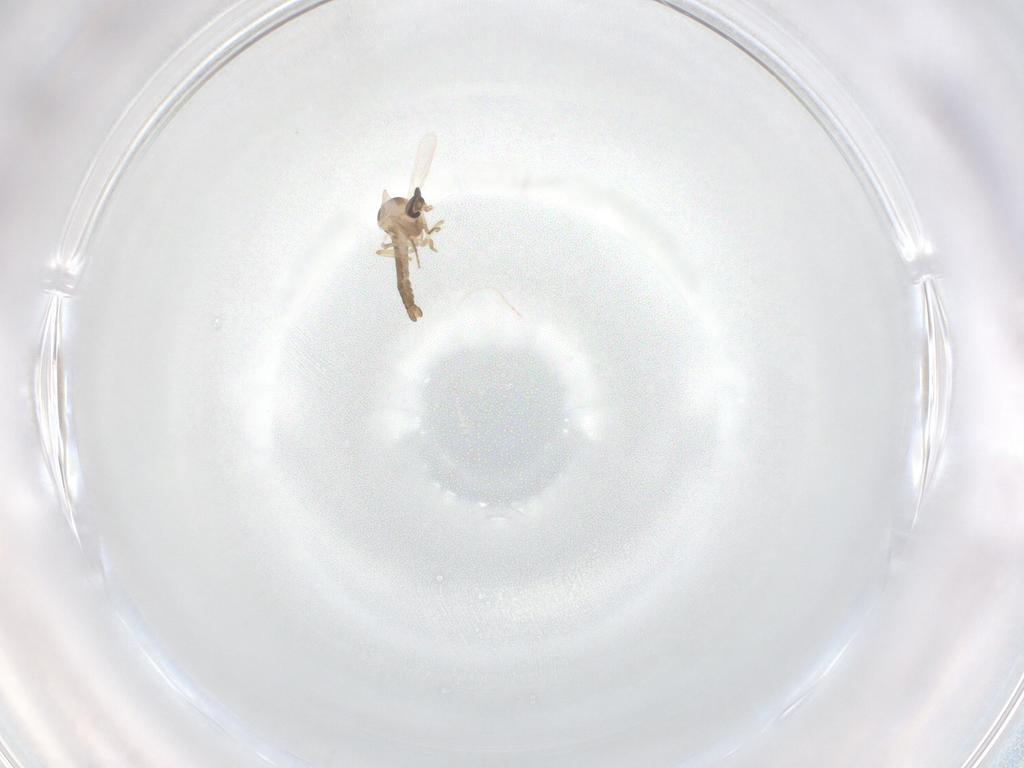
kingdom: Animalia
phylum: Arthropoda
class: Insecta
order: Diptera
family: Ceratopogonidae
